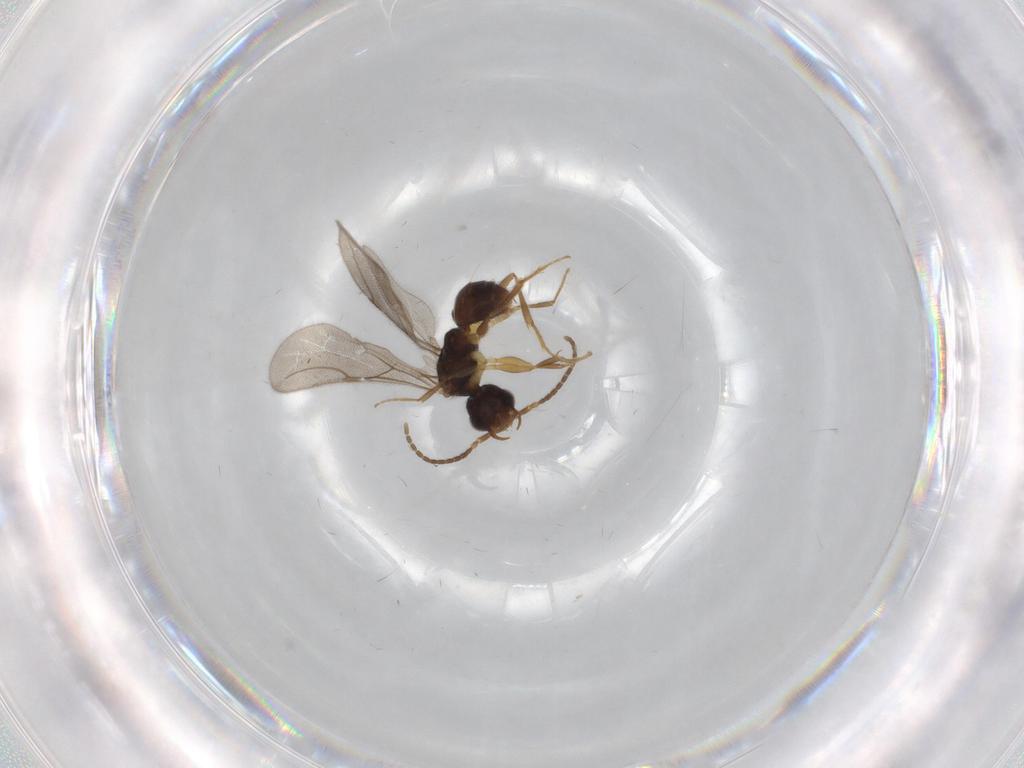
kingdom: Animalia
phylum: Arthropoda
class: Insecta
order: Hymenoptera
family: Bethylidae
